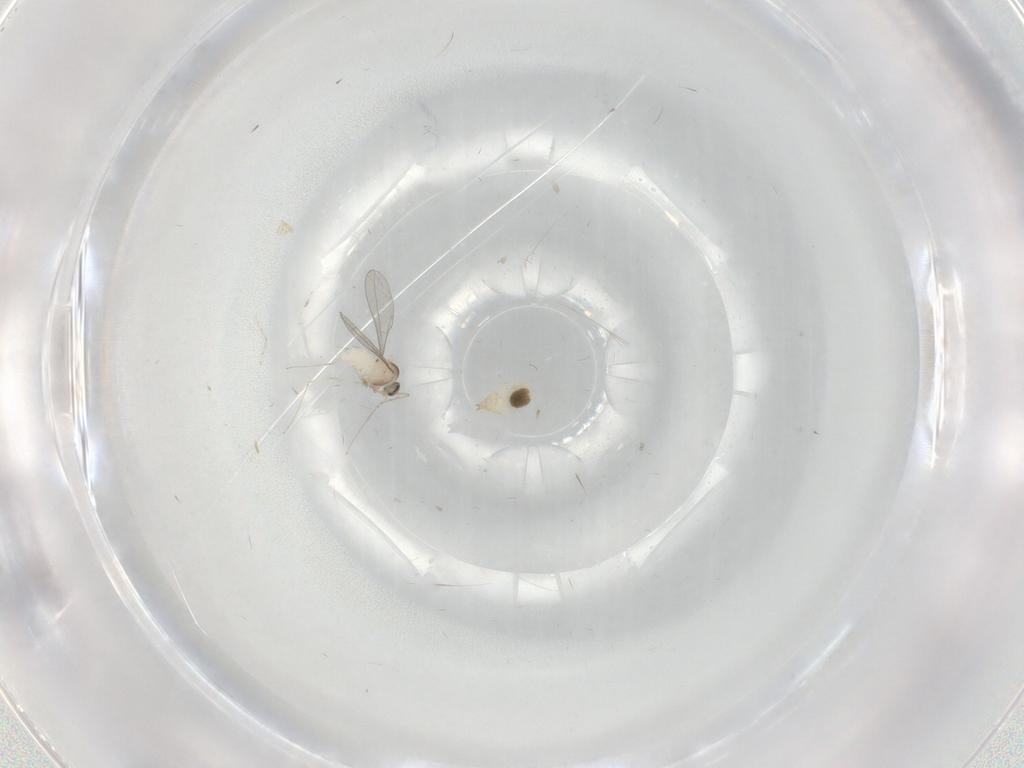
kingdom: Animalia
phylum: Arthropoda
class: Insecta
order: Diptera
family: Cecidomyiidae
